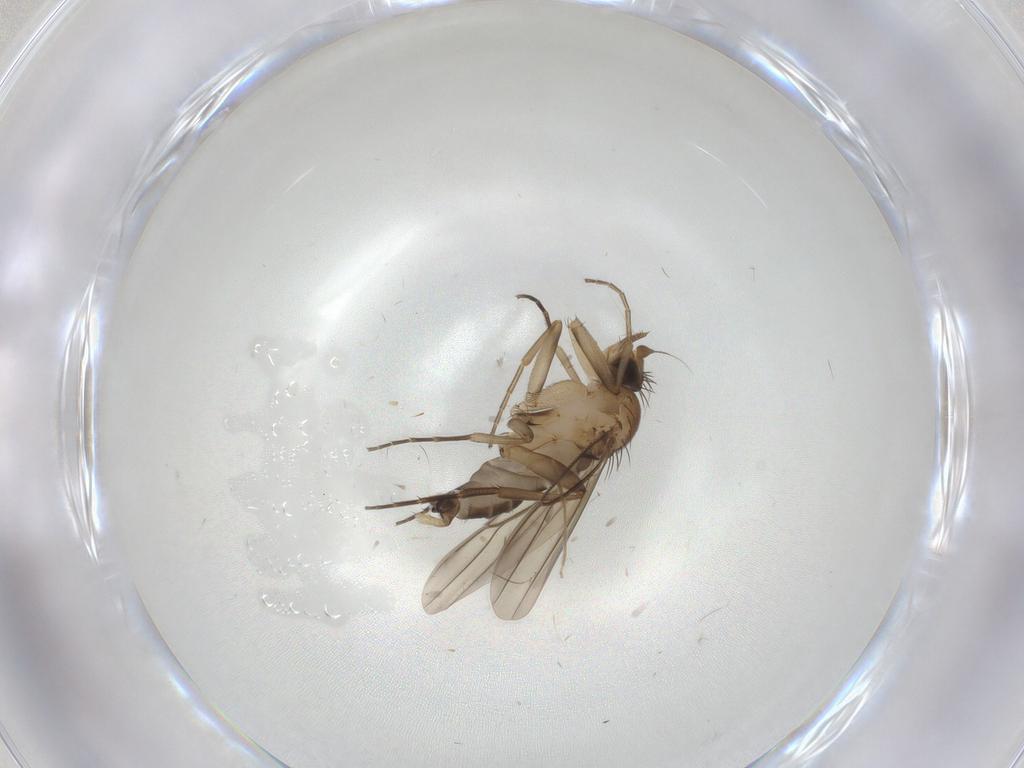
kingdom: Animalia
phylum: Arthropoda
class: Insecta
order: Diptera
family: Phoridae
